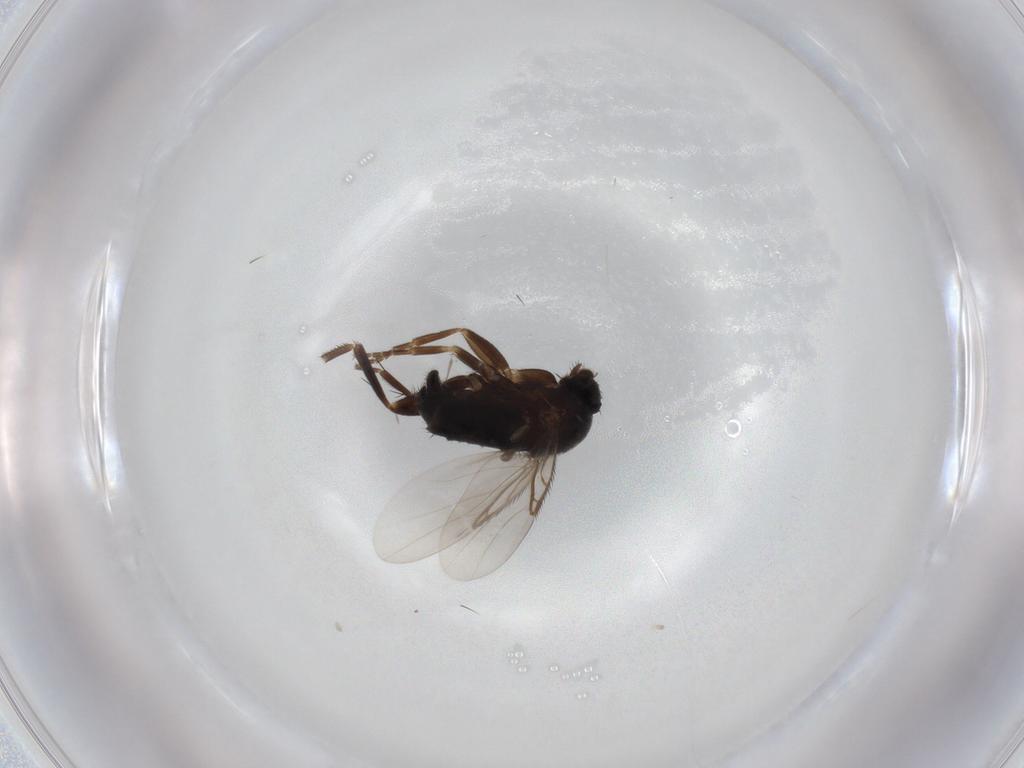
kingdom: Animalia
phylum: Arthropoda
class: Insecta
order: Diptera
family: Phoridae
